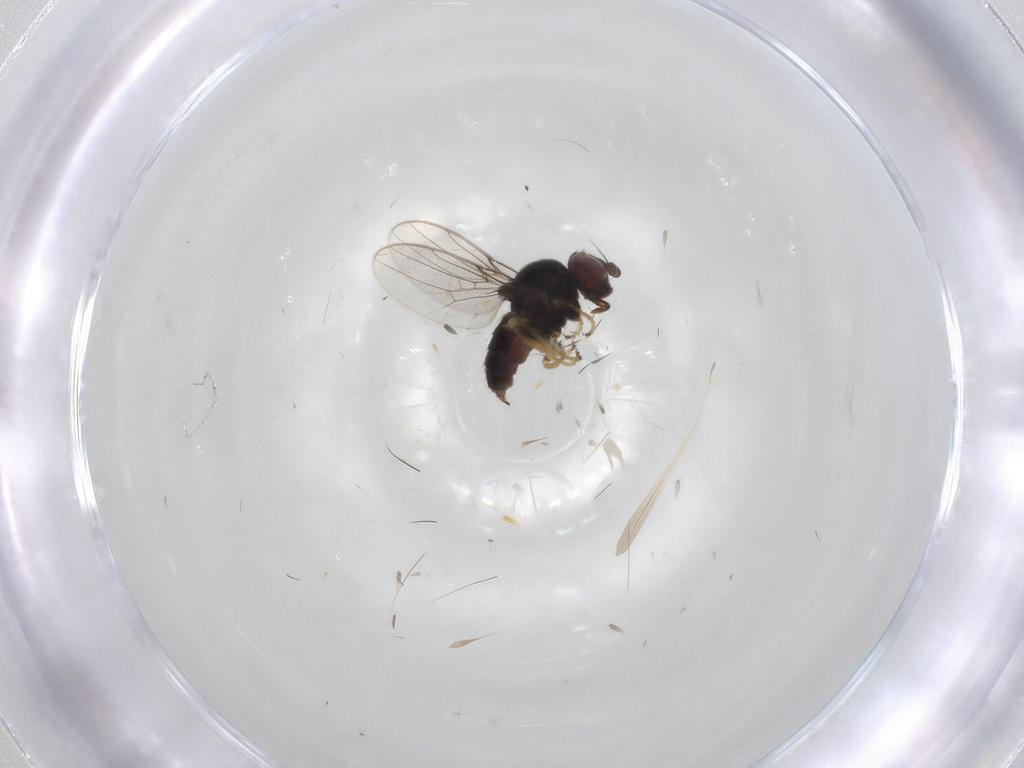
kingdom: Animalia
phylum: Arthropoda
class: Insecta
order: Diptera
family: Chloropidae
